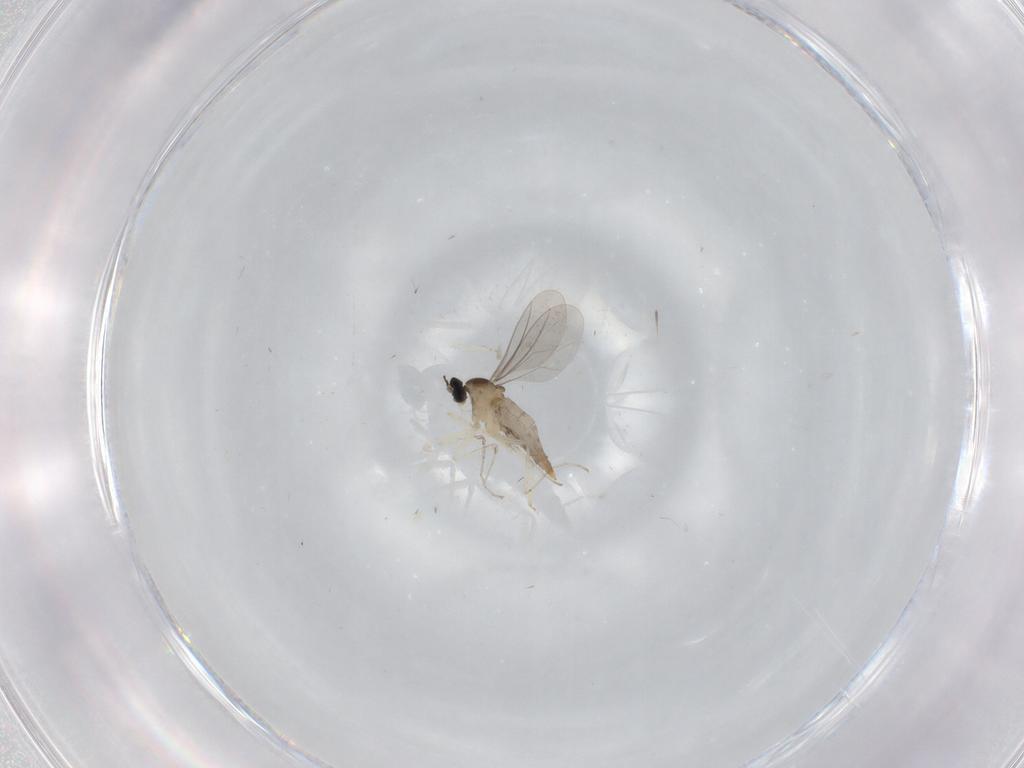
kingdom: Animalia
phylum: Arthropoda
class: Insecta
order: Diptera
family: Cecidomyiidae
